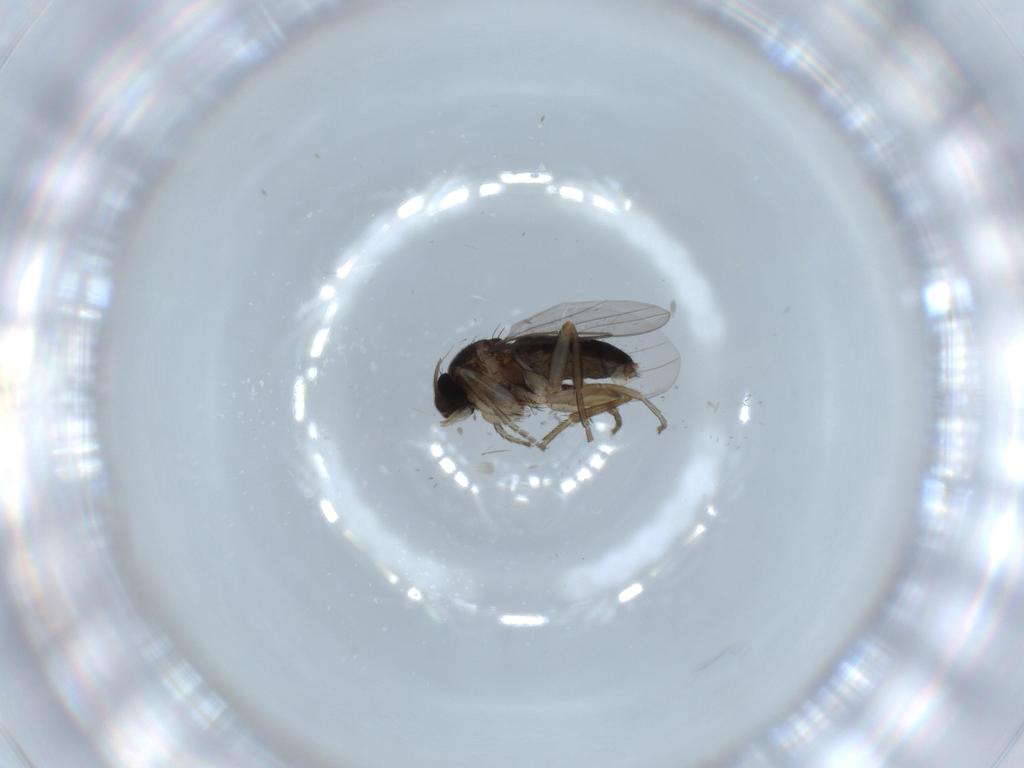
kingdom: Animalia
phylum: Arthropoda
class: Insecta
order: Diptera
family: Phoridae
